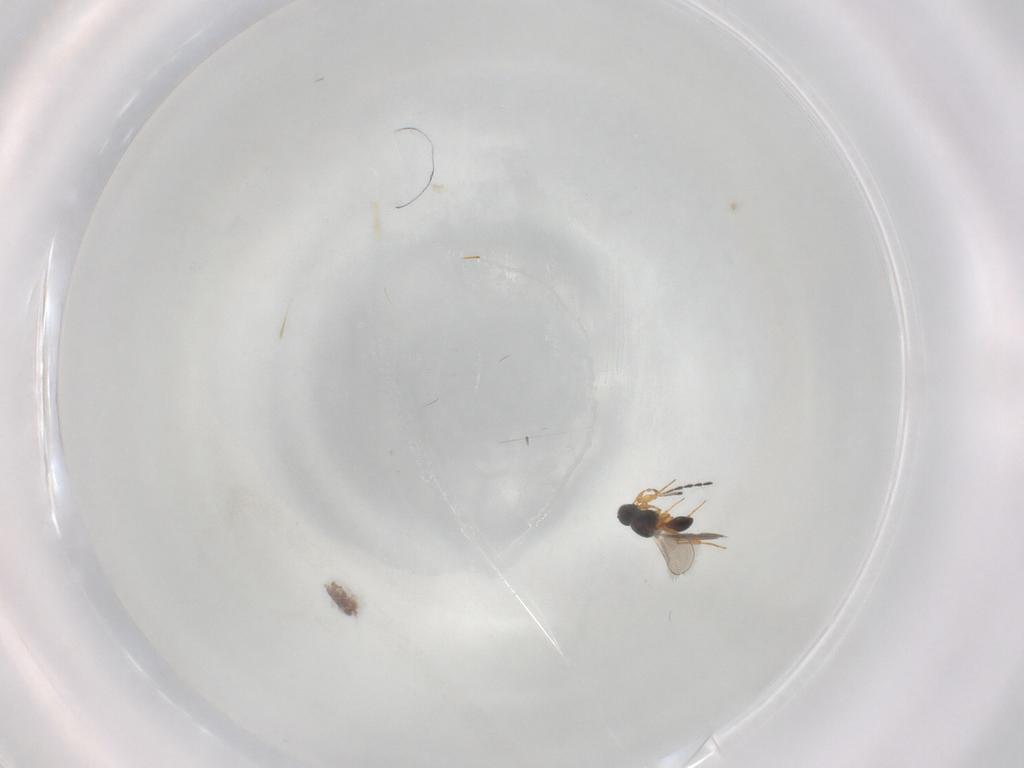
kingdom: Animalia
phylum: Arthropoda
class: Insecta
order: Hymenoptera
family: Platygastridae
